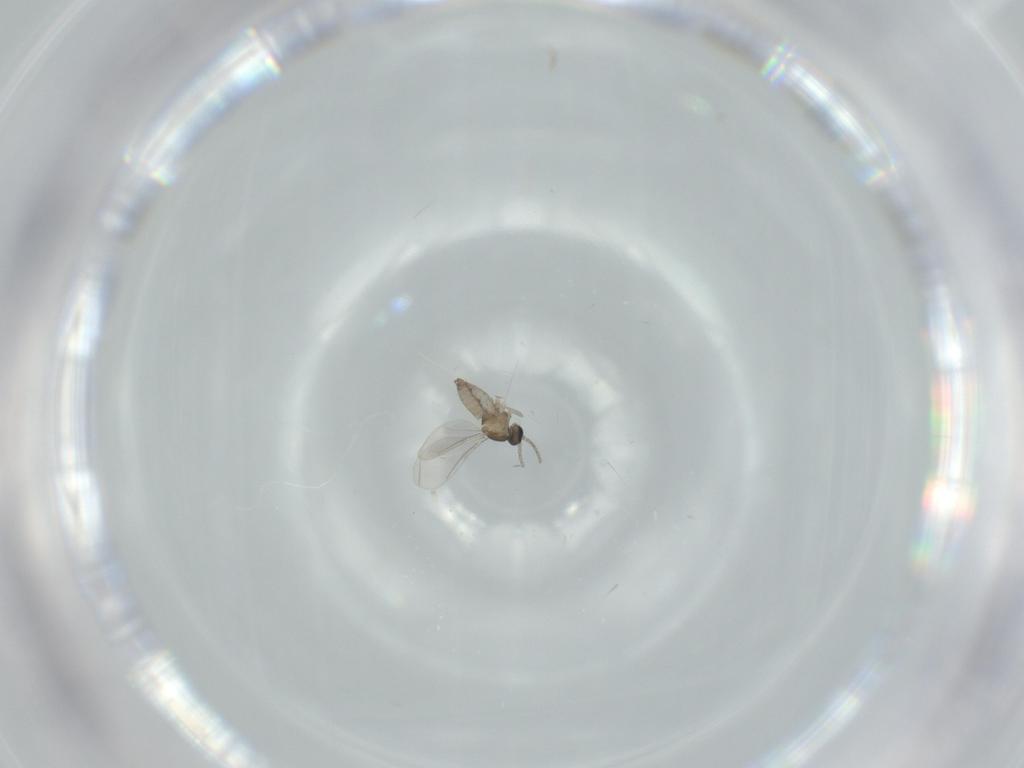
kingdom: Animalia
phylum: Arthropoda
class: Insecta
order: Diptera
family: Cecidomyiidae
